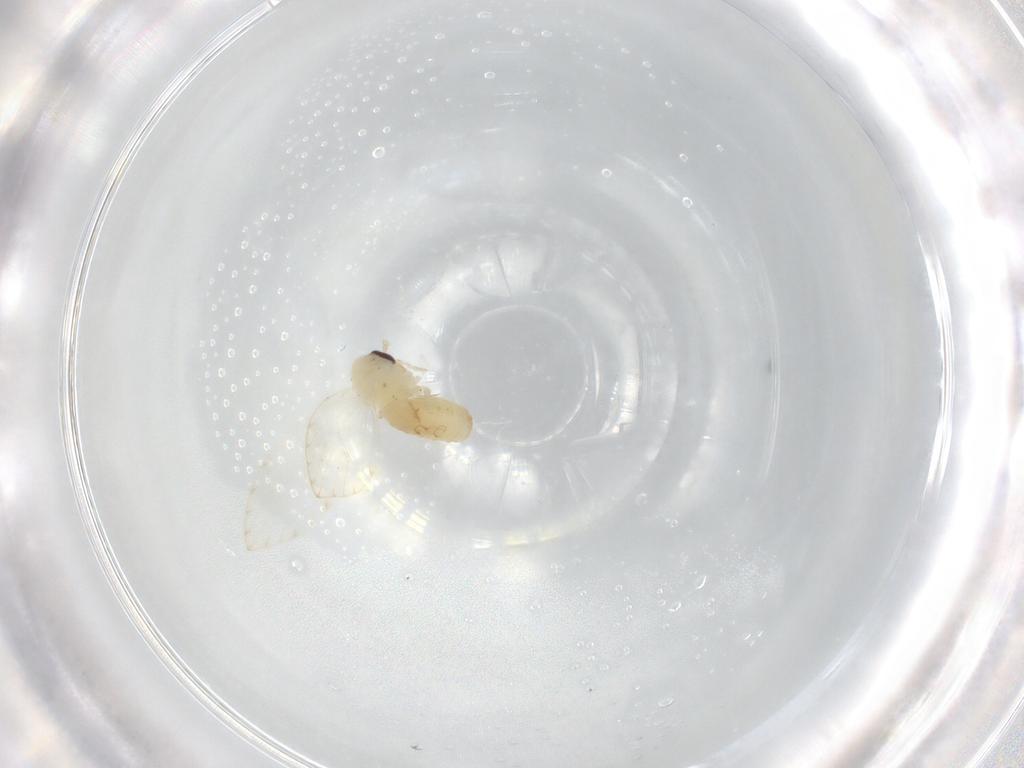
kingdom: Animalia
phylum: Arthropoda
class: Insecta
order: Diptera
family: Psychodidae
